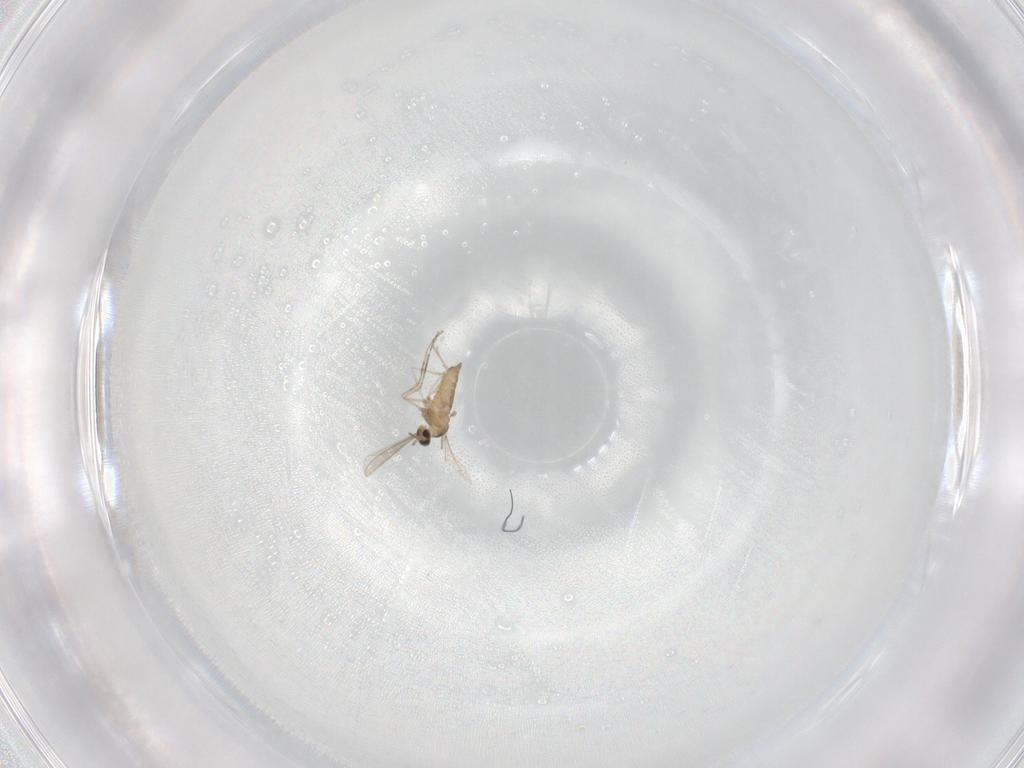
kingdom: Animalia
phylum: Arthropoda
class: Insecta
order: Diptera
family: Cecidomyiidae
